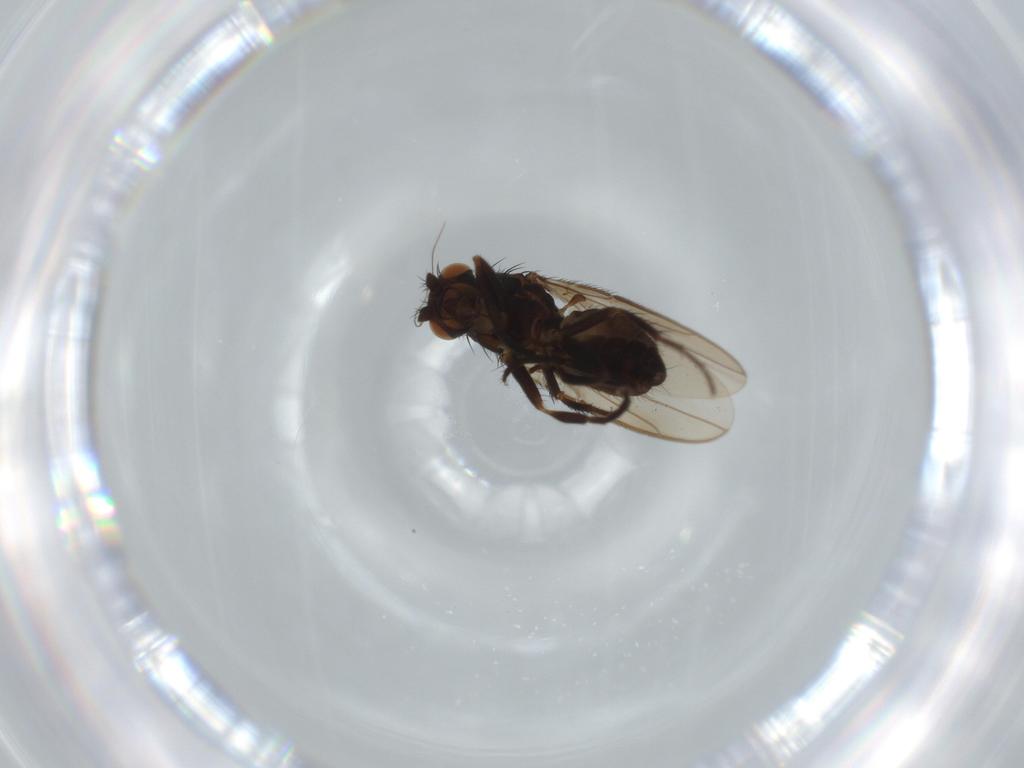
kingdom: Animalia
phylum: Arthropoda
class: Insecta
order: Diptera
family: Sphaeroceridae
